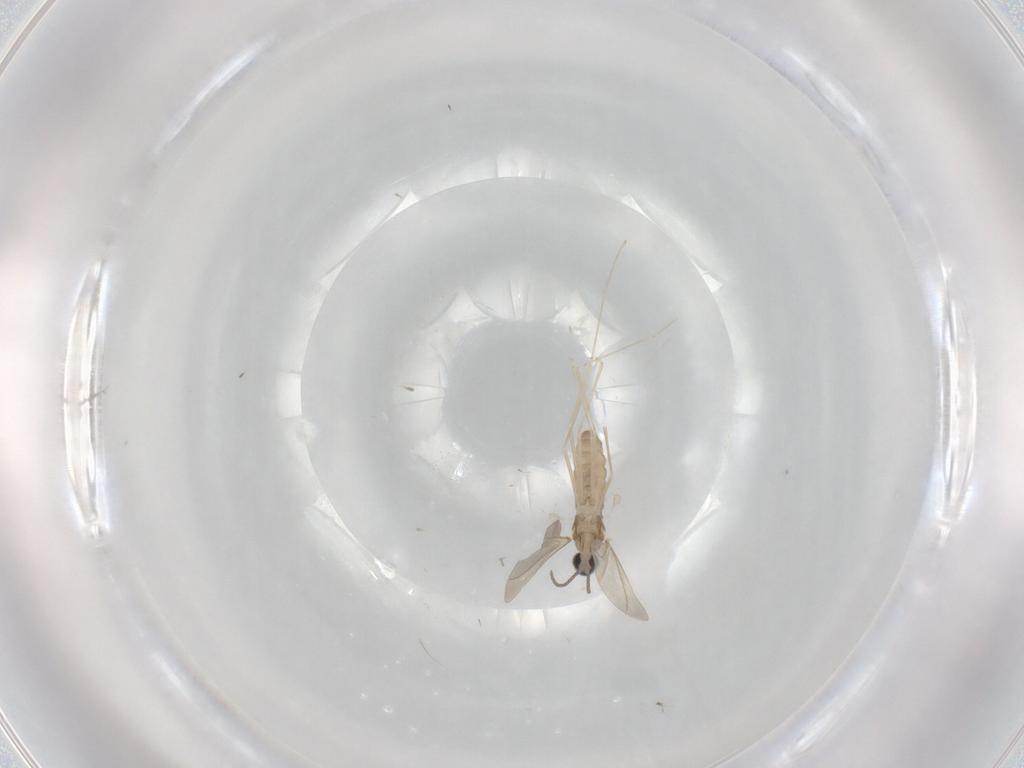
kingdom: Animalia
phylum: Arthropoda
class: Insecta
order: Diptera
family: Cecidomyiidae
